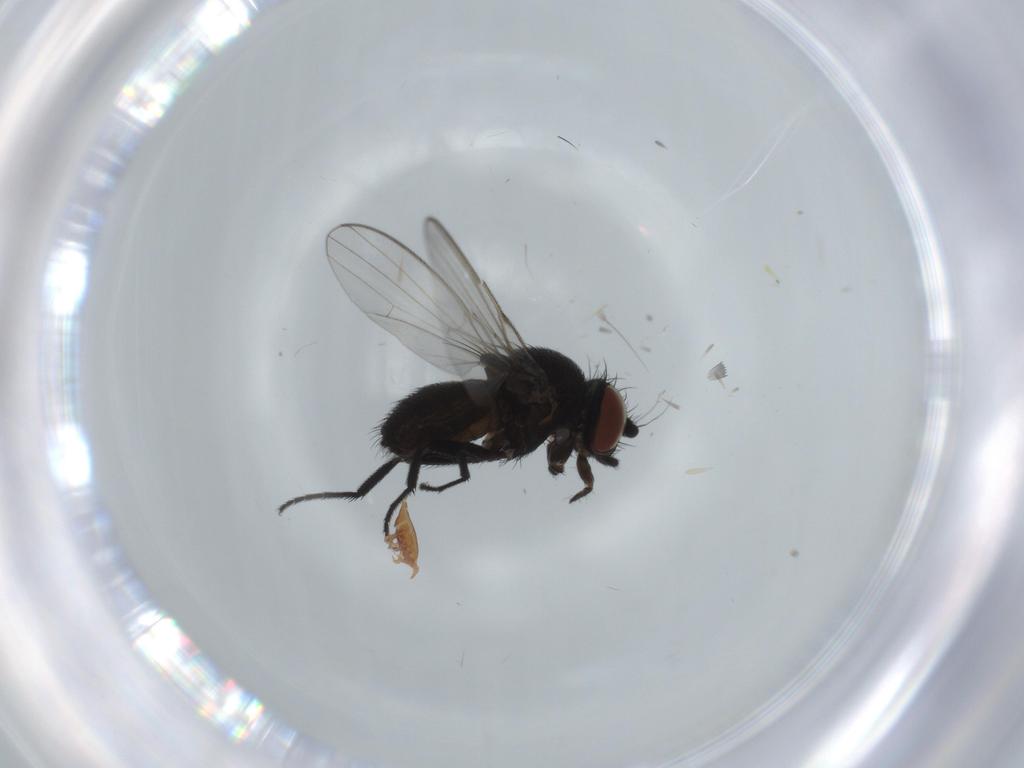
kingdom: Animalia
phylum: Arthropoda
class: Insecta
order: Diptera
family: Milichiidae
